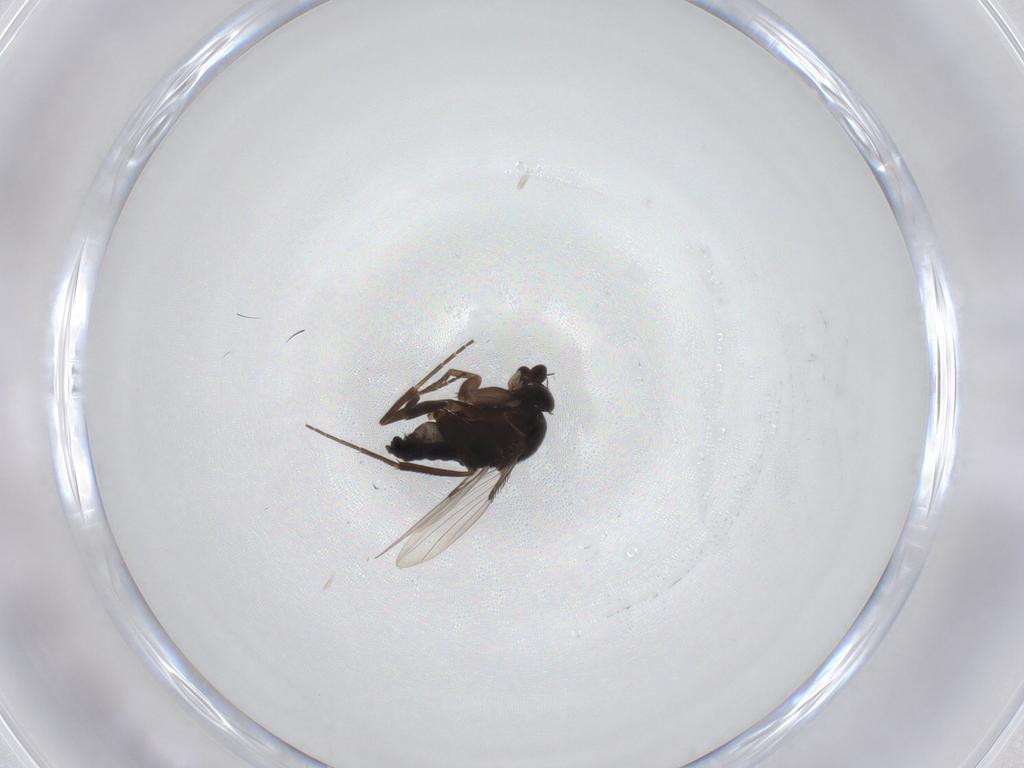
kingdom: Animalia
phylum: Arthropoda
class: Insecta
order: Diptera
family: Phoridae
